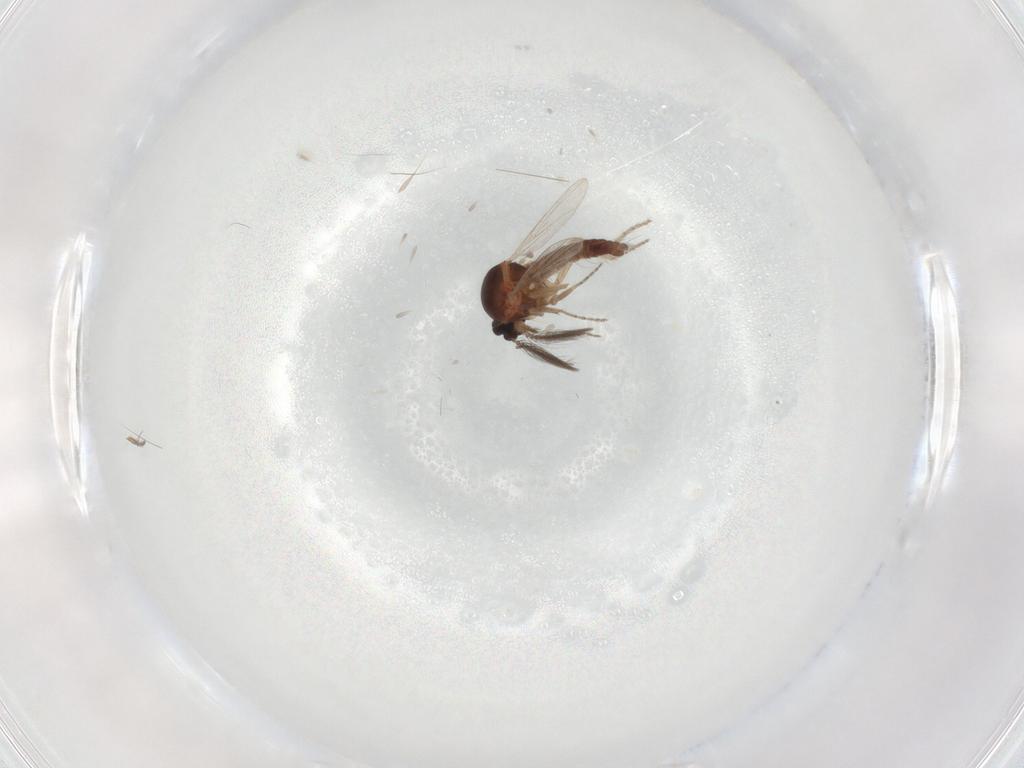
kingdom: Animalia
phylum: Arthropoda
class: Insecta
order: Diptera
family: Ceratopogonidae
